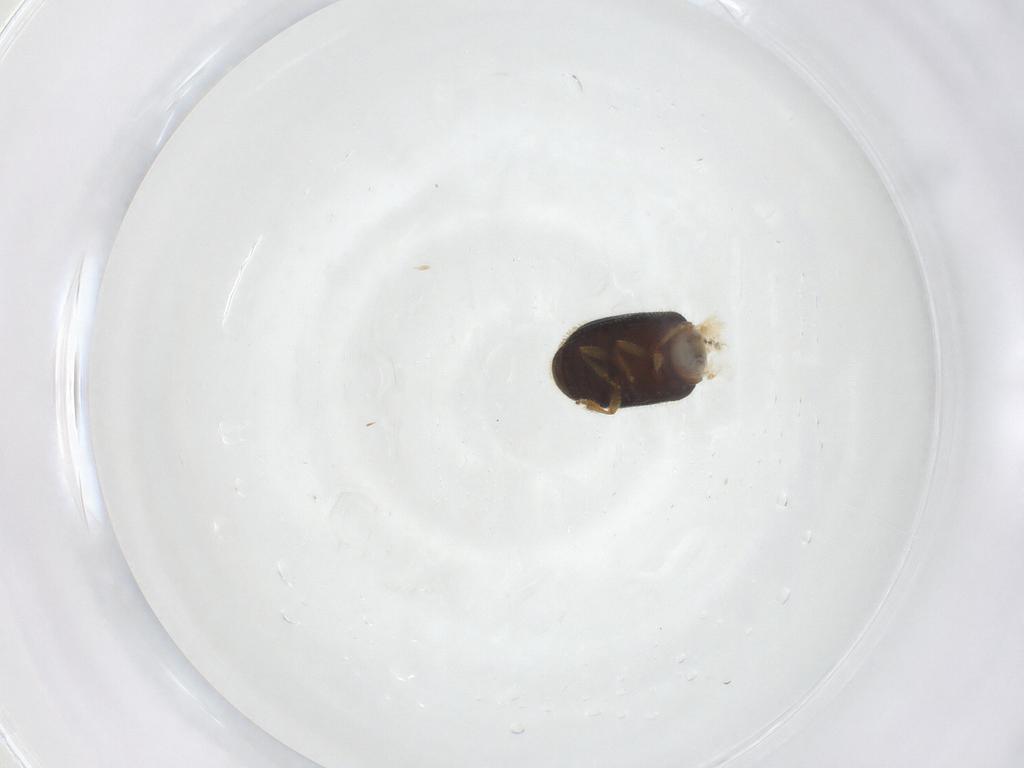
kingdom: Animalia
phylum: Arthropoda
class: Insecta
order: Coleoptera
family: Curculionidae
